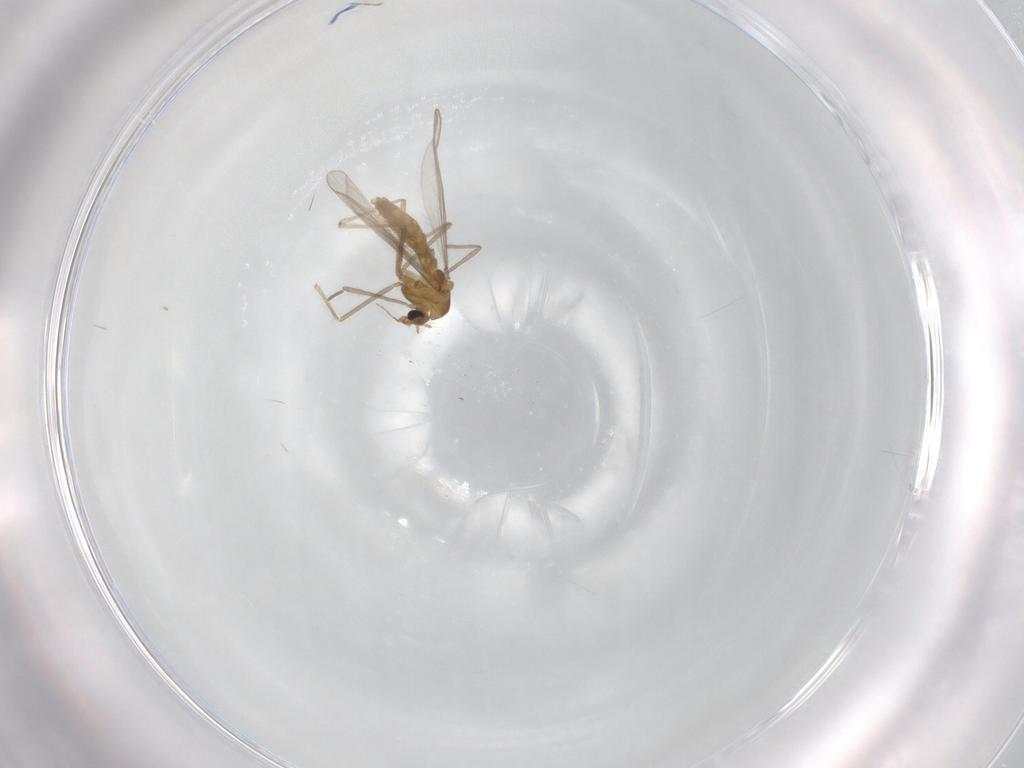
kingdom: Animalia
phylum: Arthropoda
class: Insecta
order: Diptera
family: Chironomidae
